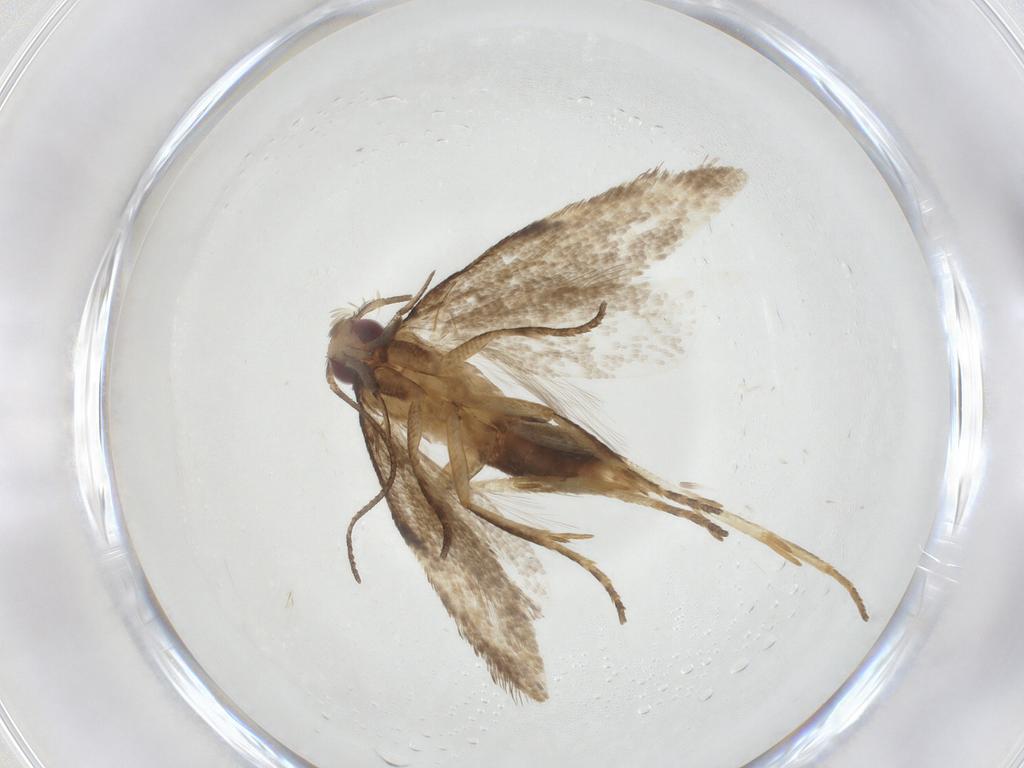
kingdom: Animalia
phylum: Arthropoda
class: Insecta
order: Lepidoptera
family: Gelechiidae
